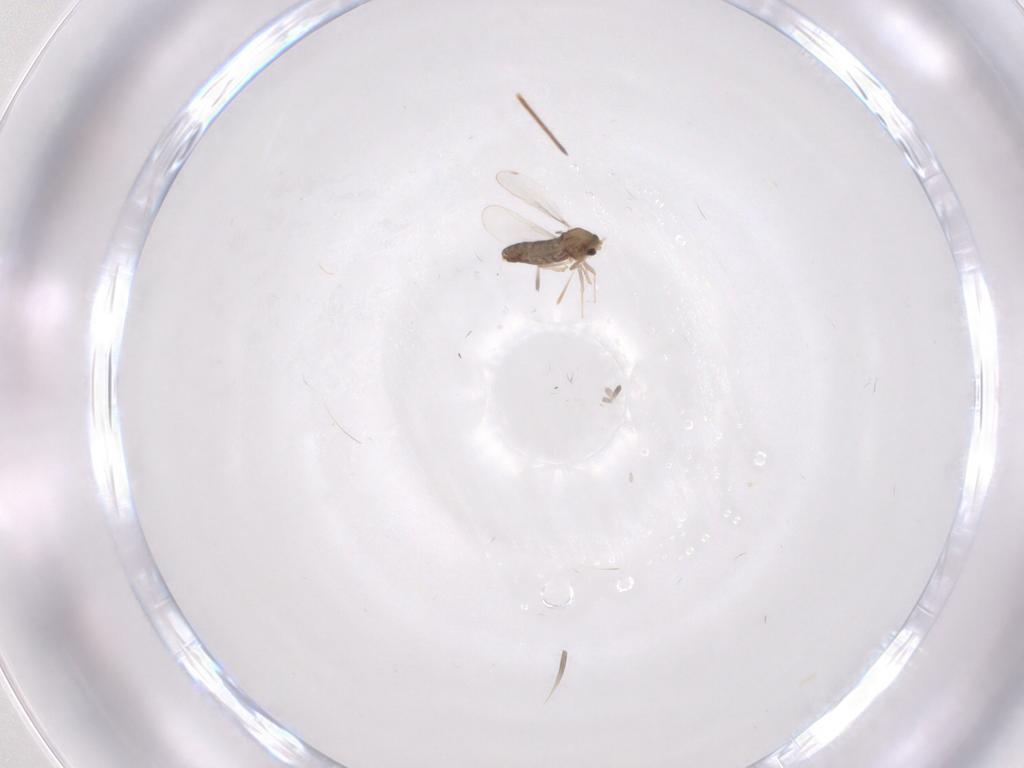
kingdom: Animalia
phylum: Arthropoda
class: Insecta
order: Diptera
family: Chironomidae
